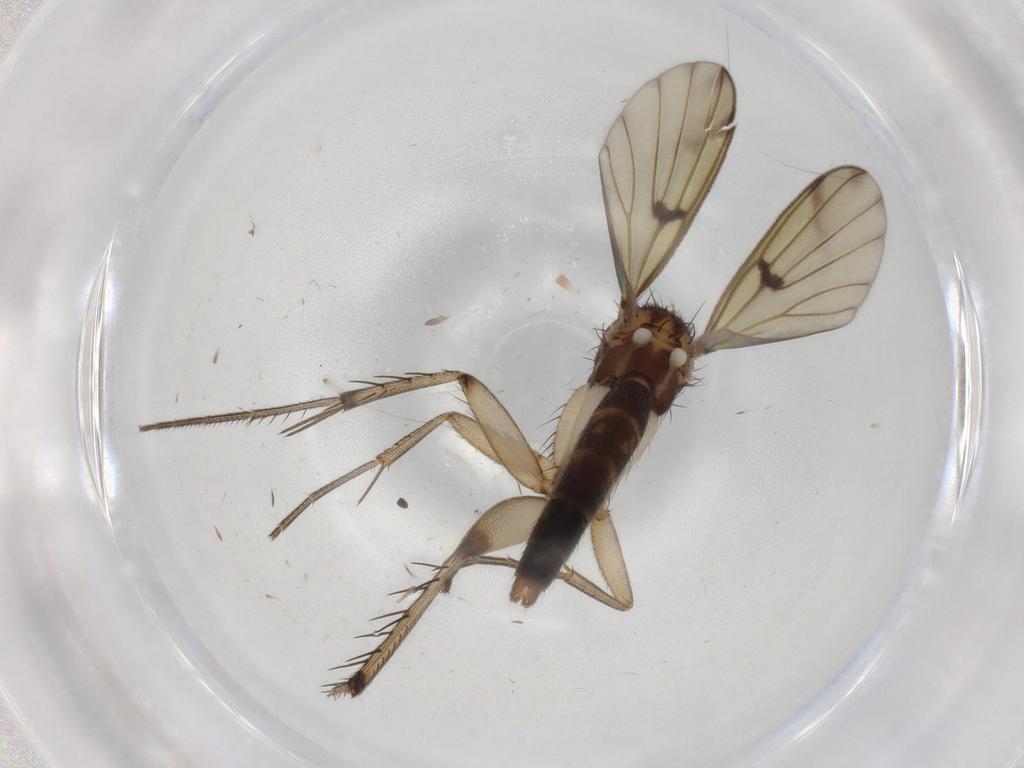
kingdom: Animalia
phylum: Arthropoda
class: Insecta
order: Diptera
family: Mycetophilidae
